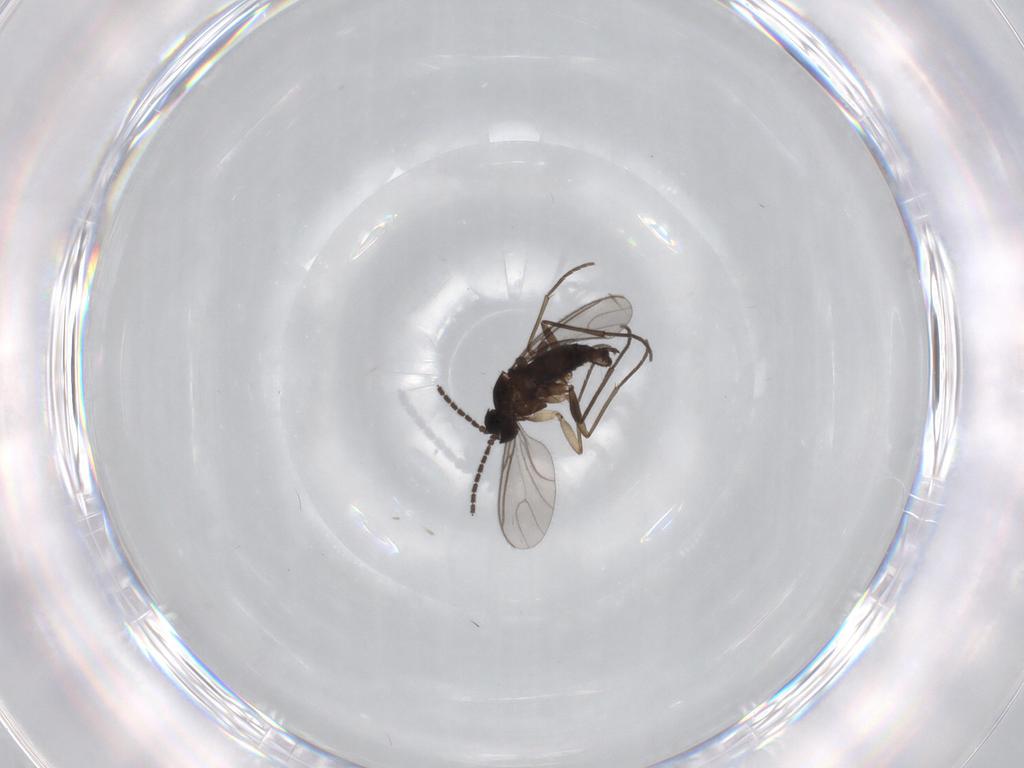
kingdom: Animalia
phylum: Arthropoda
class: Insecta
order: Diptera
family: Sciaridae
